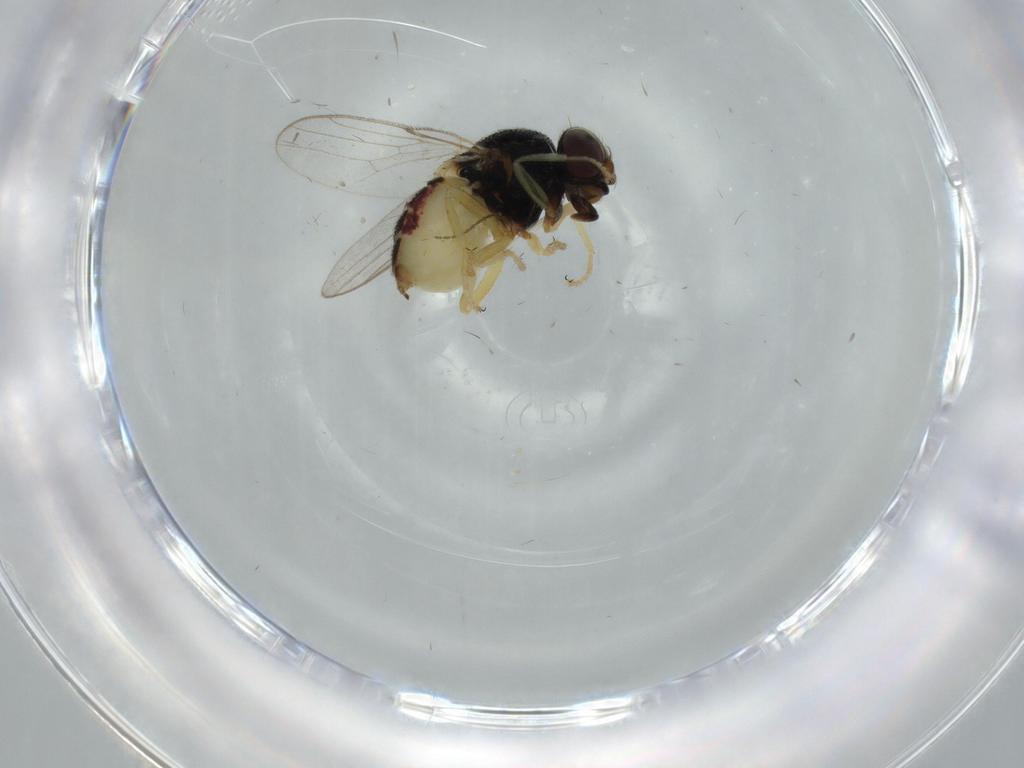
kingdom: Animalia
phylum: Arthropoda
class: Insecta
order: Diptera
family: Chloropidae
